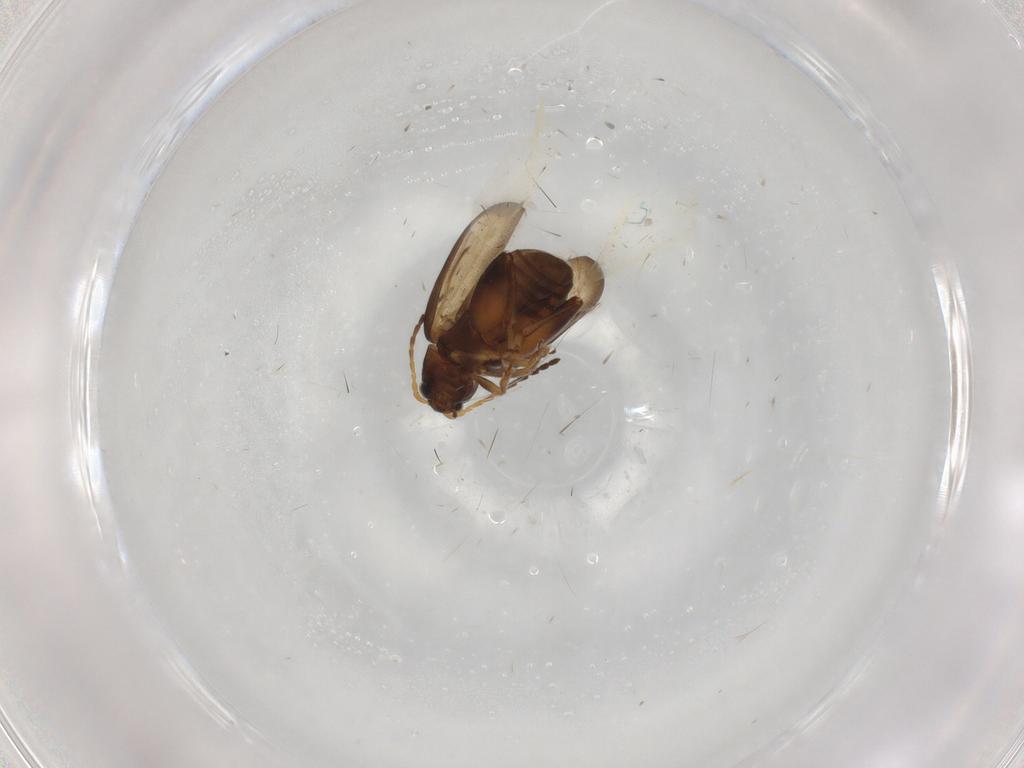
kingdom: Animalia
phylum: Arthropoda
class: Insecta
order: Coleoptera
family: Chrysomelidae
